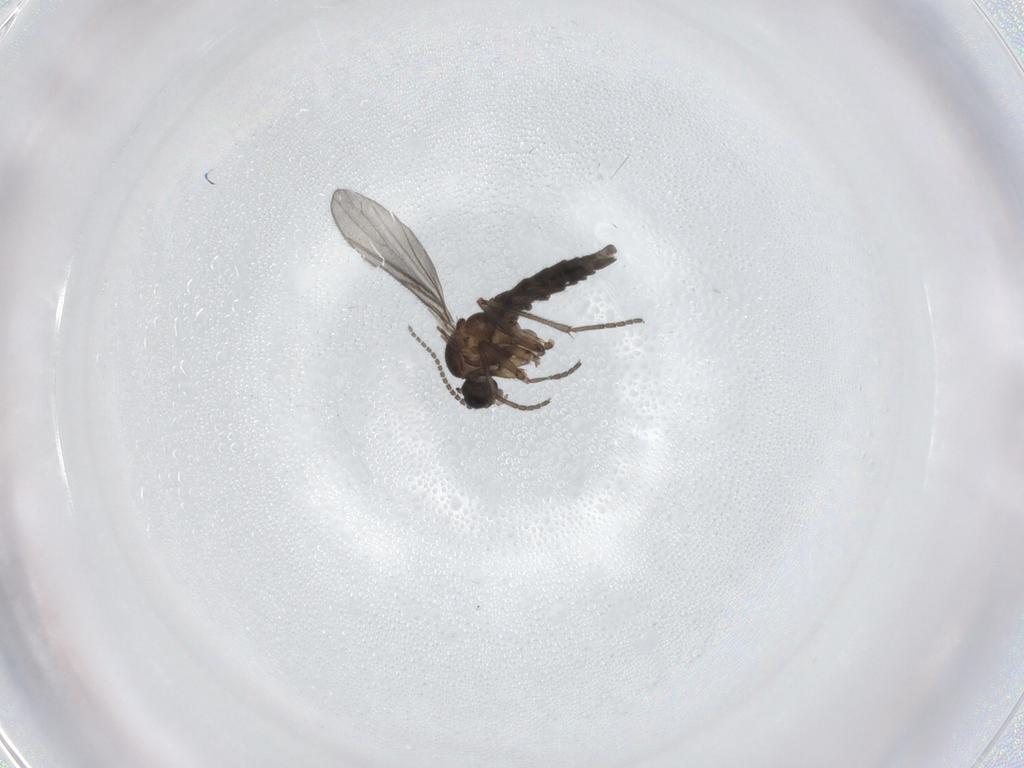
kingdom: Animalia
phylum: Arthropoda
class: Insecta
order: Diptera
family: Sciaridae
